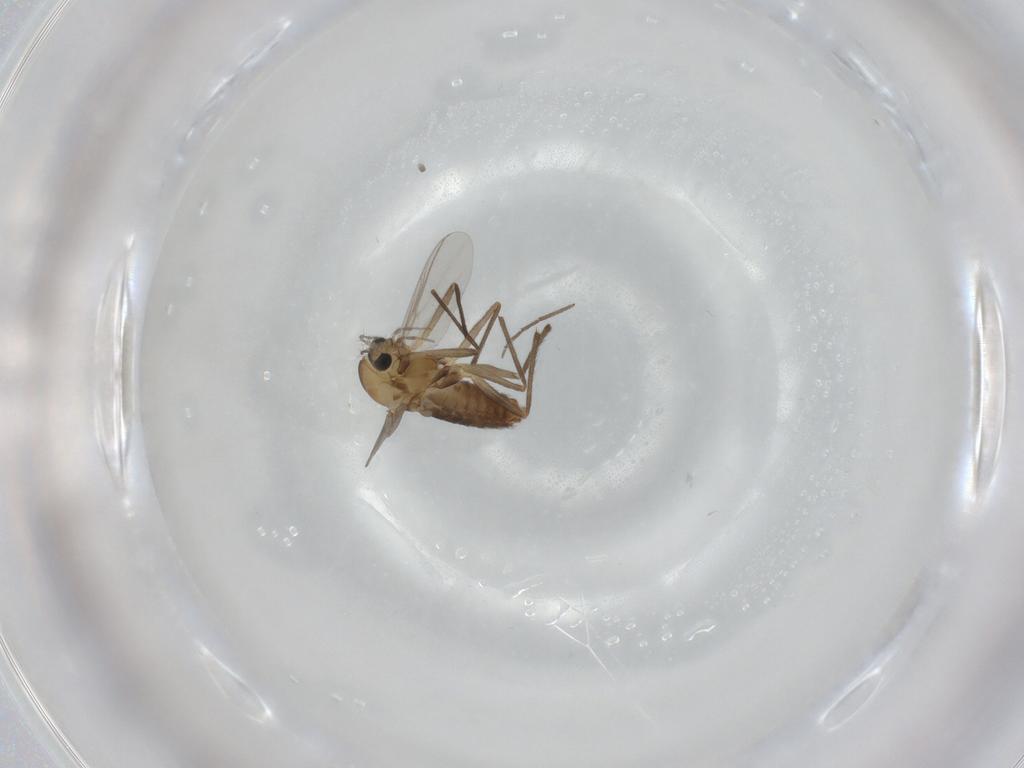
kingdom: Animalia
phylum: Arthropoda
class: Insecta
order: Diptera
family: Chironomidae
